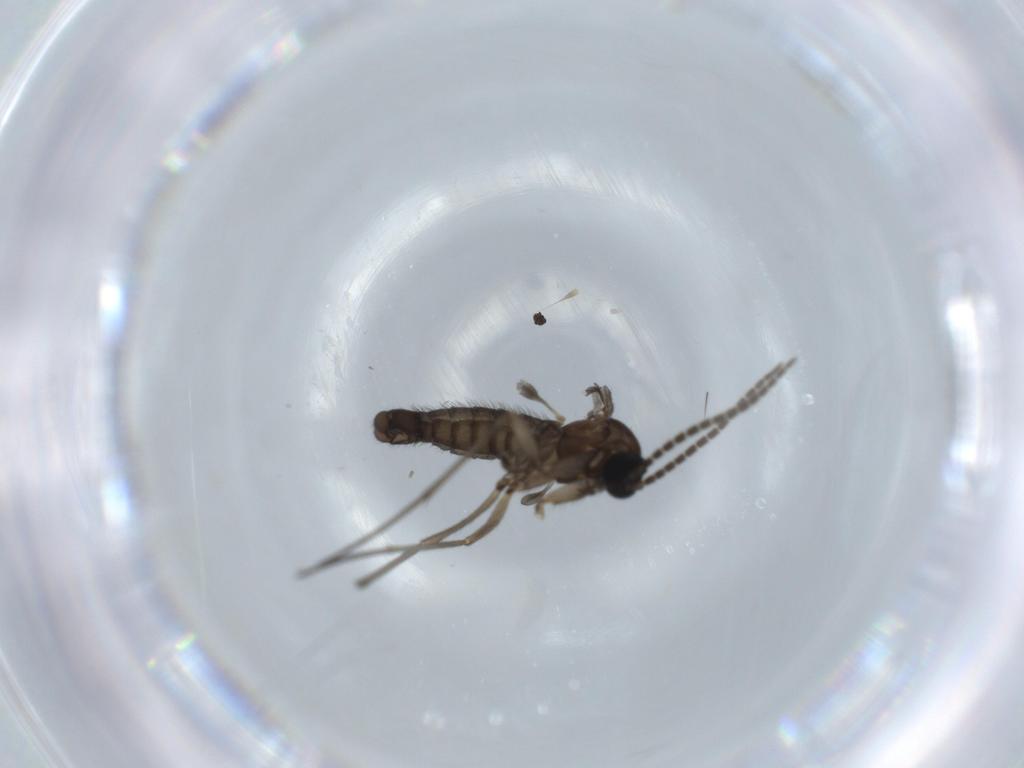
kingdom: Animalia
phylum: Arthropoda
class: Insecta
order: Diptera
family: Sciaridae
